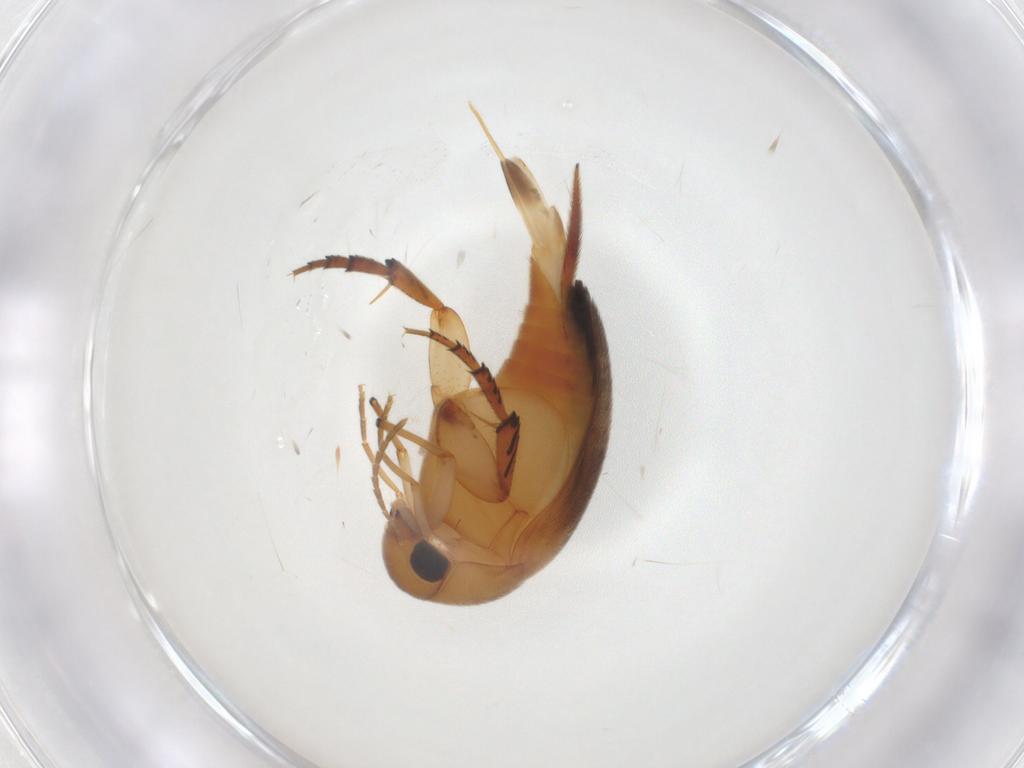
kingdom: Animalia
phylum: Arthropoda
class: Insecta
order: Coleoptera
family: Mordellidae
